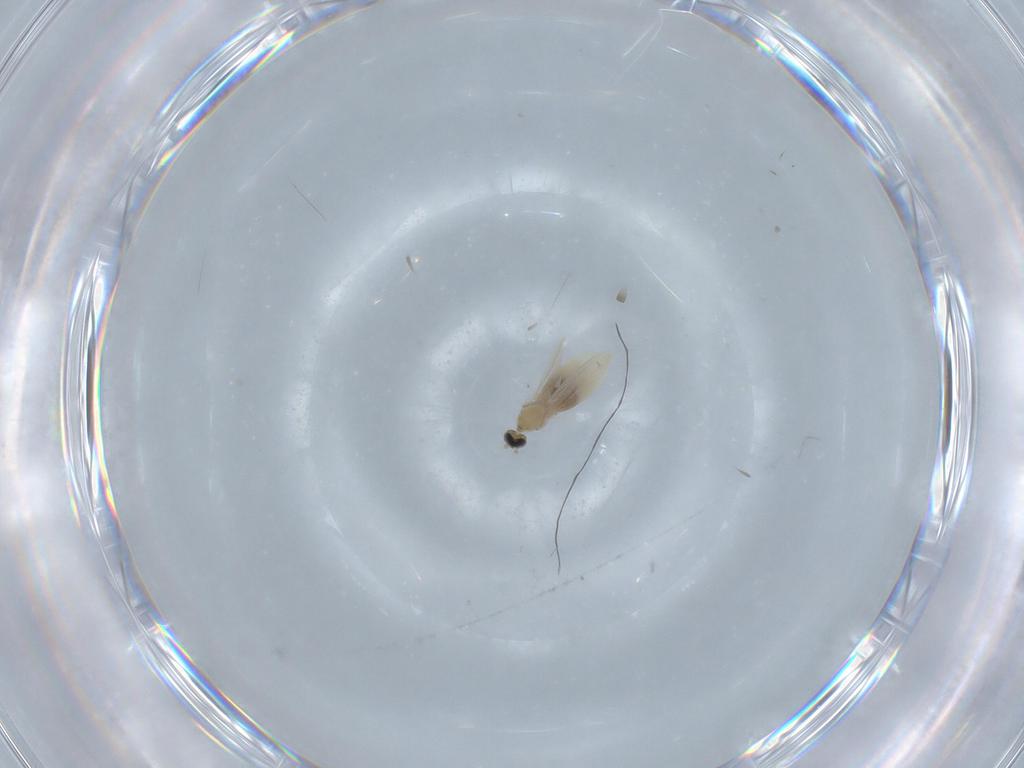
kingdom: Animalia
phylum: Arthropoda
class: Insecta
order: Diptera
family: Cecidomyiidae
